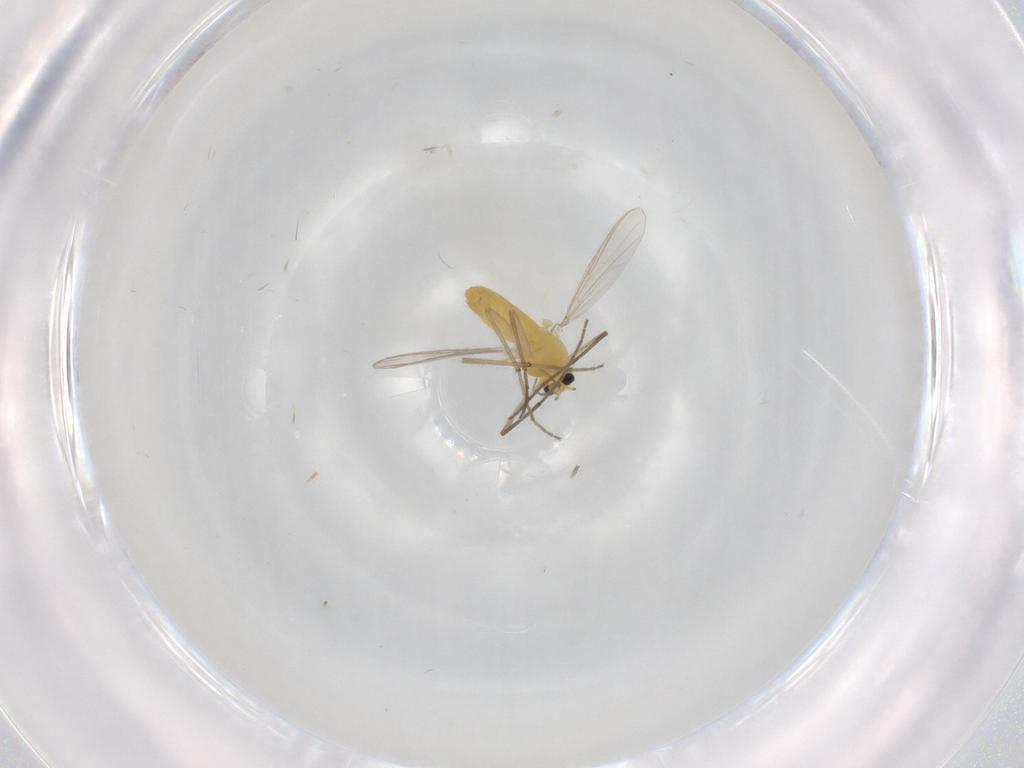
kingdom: Animalia
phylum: Arthropoda
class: Insecta
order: Diptera
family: Chironomidae
